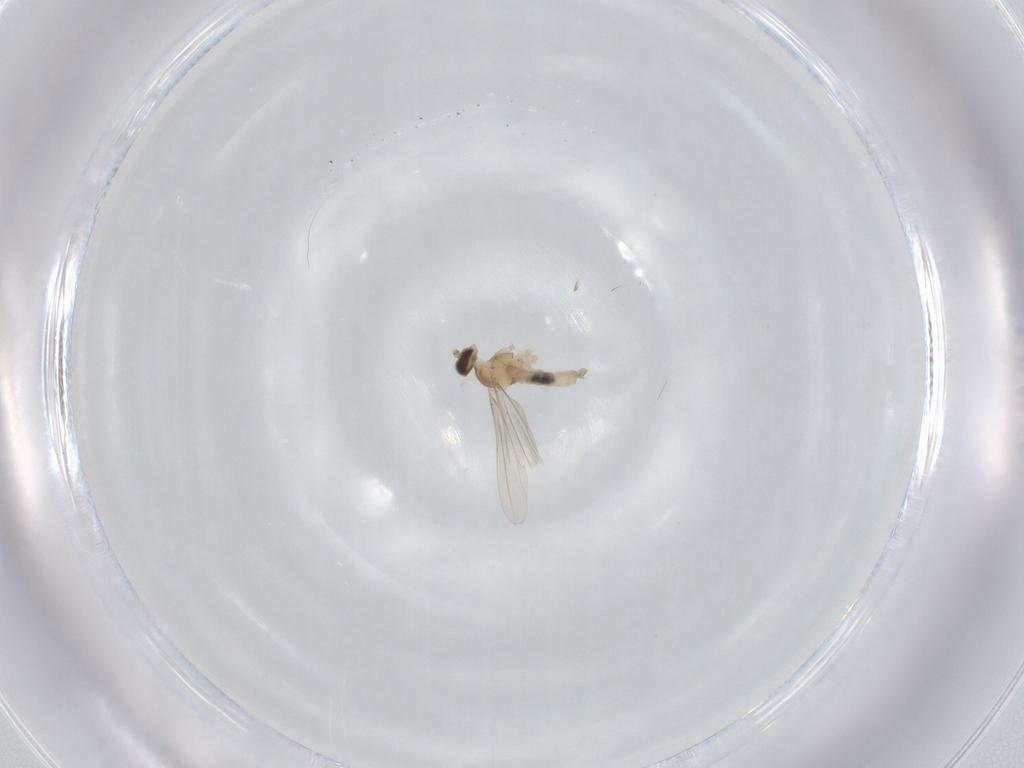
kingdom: Animalia
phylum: Arthropoda
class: Insecta
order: Diptera
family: Cecidomyiidae
